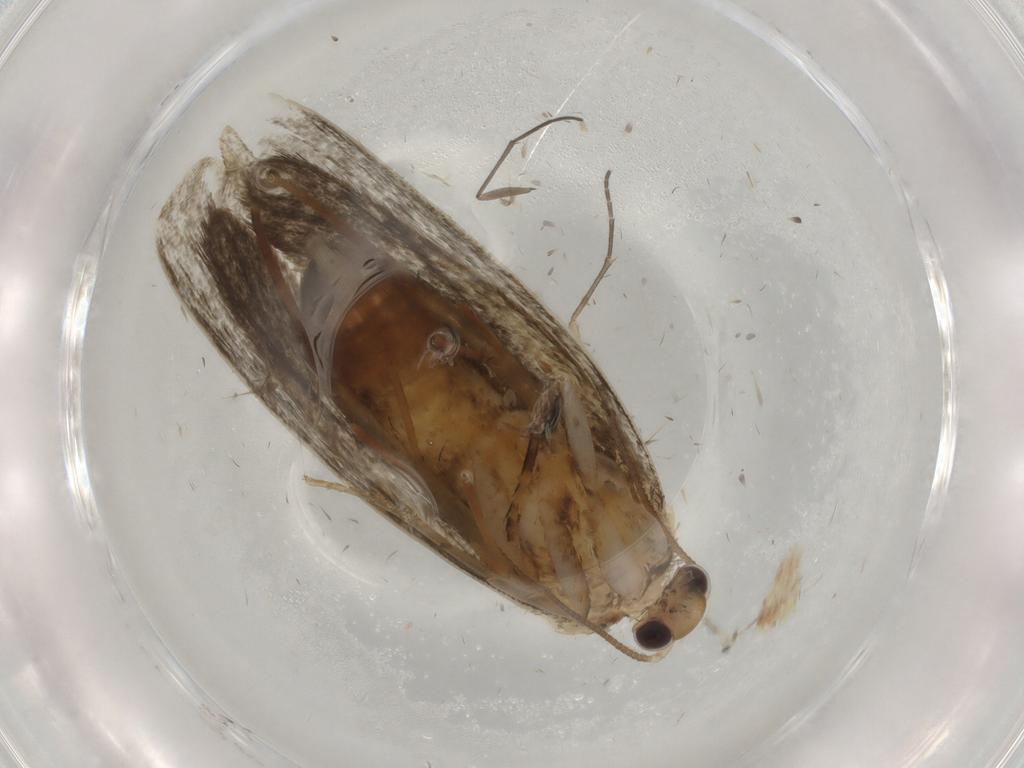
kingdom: Animalia
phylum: Arthropoda
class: Insecta
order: Lepidoptera
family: Psychidae
